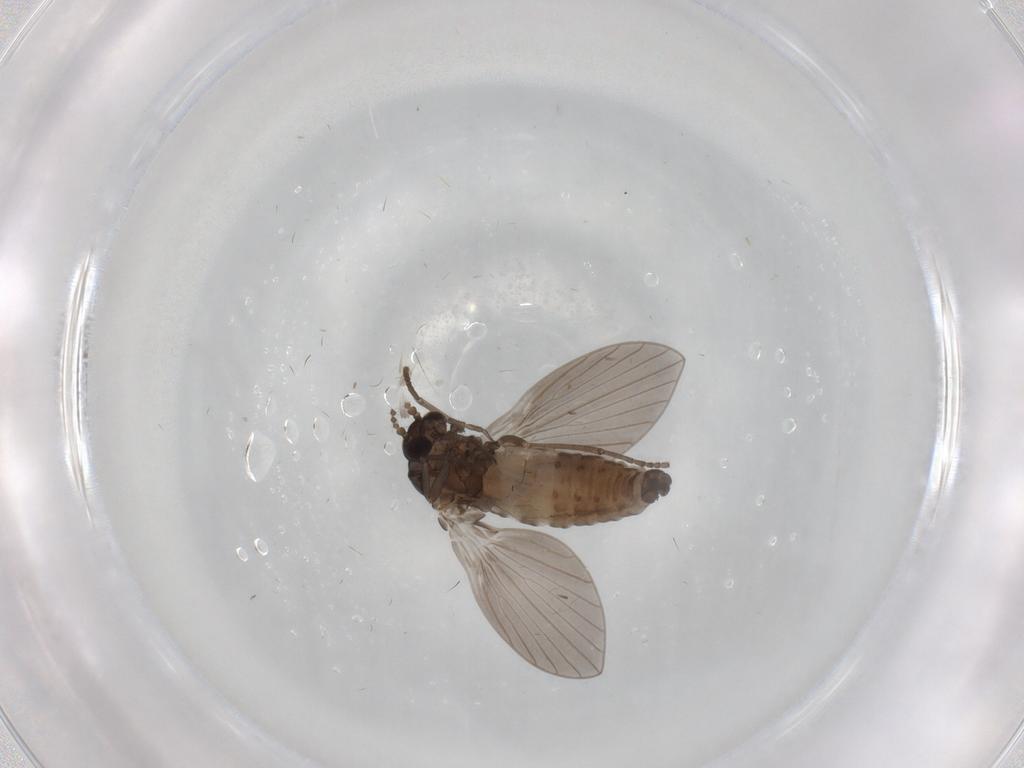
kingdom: Animalia
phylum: Arthropoda
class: Insecta
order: Diptera
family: Psychodidae
